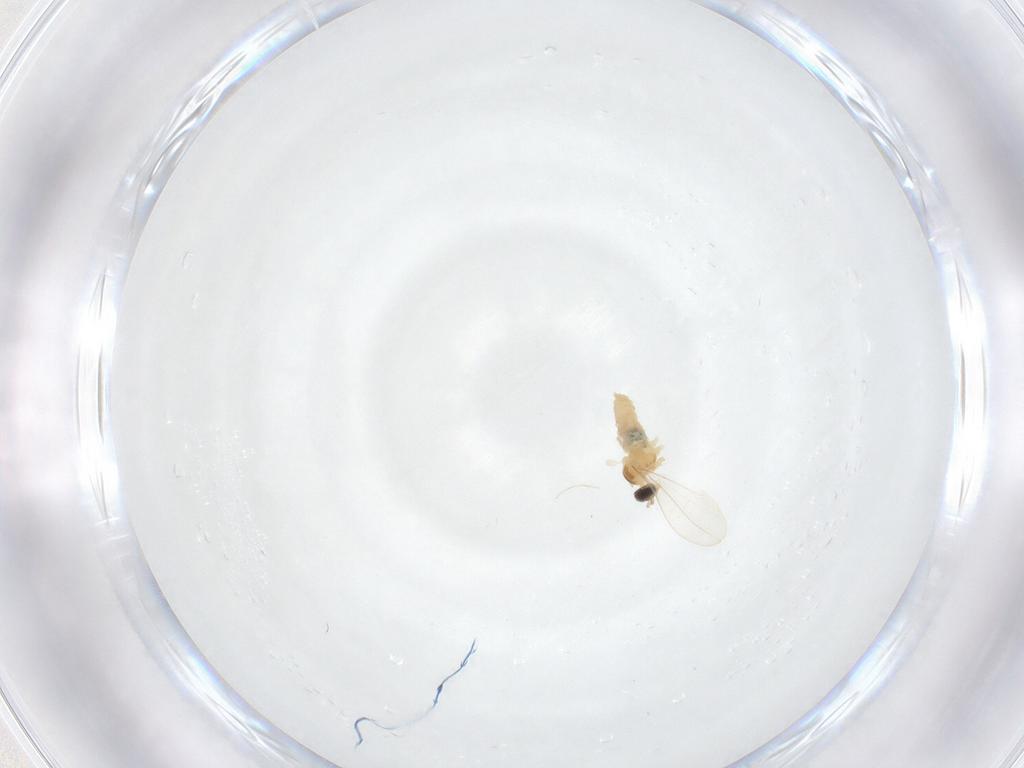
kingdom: Animalia
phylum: Arthropoda
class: Insecta
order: Diptera
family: Cecidomyiidae
